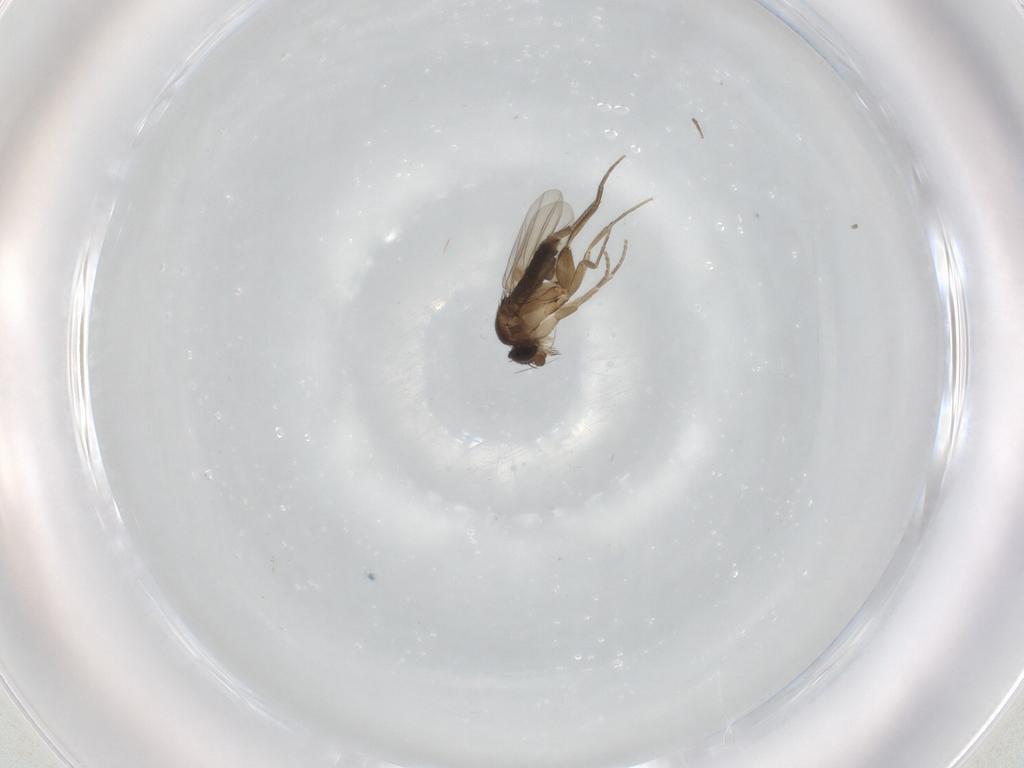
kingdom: Animalia
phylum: Arthropoda
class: Insecta
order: Diptera
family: Phoridae
